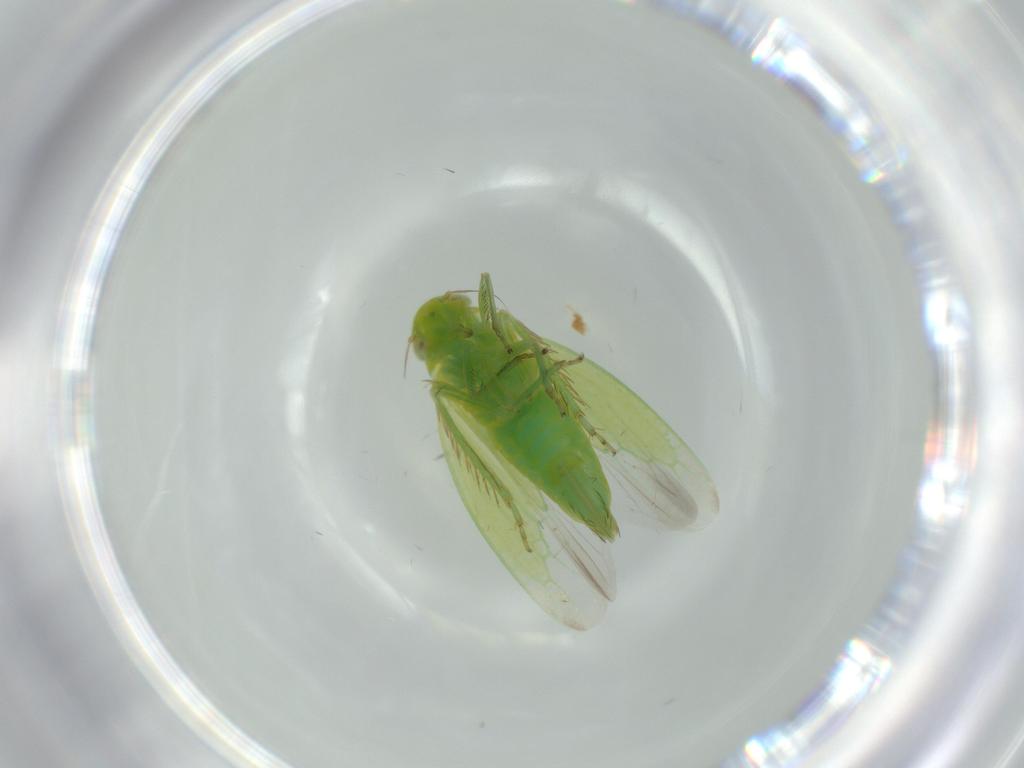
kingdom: Animalia
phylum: Arthropoda
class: Insecta
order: Hemiptera
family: Cicadellidae
